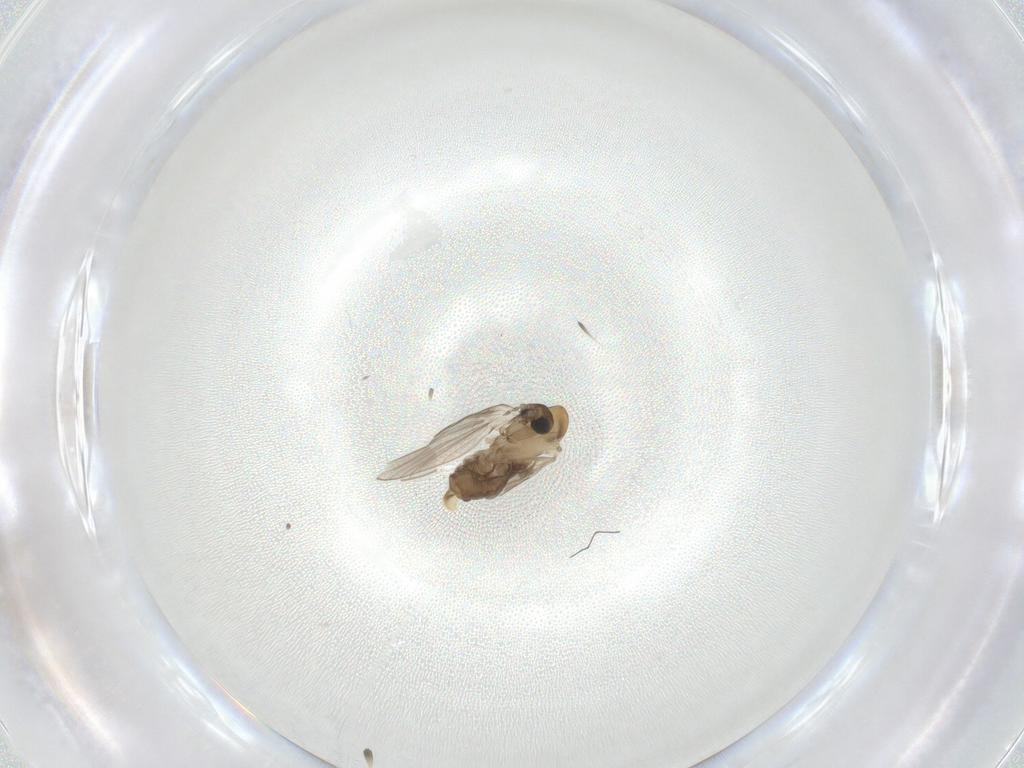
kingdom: Animalia
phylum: Arthropoda
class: Insecta
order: Diptera
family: Psychodidae
